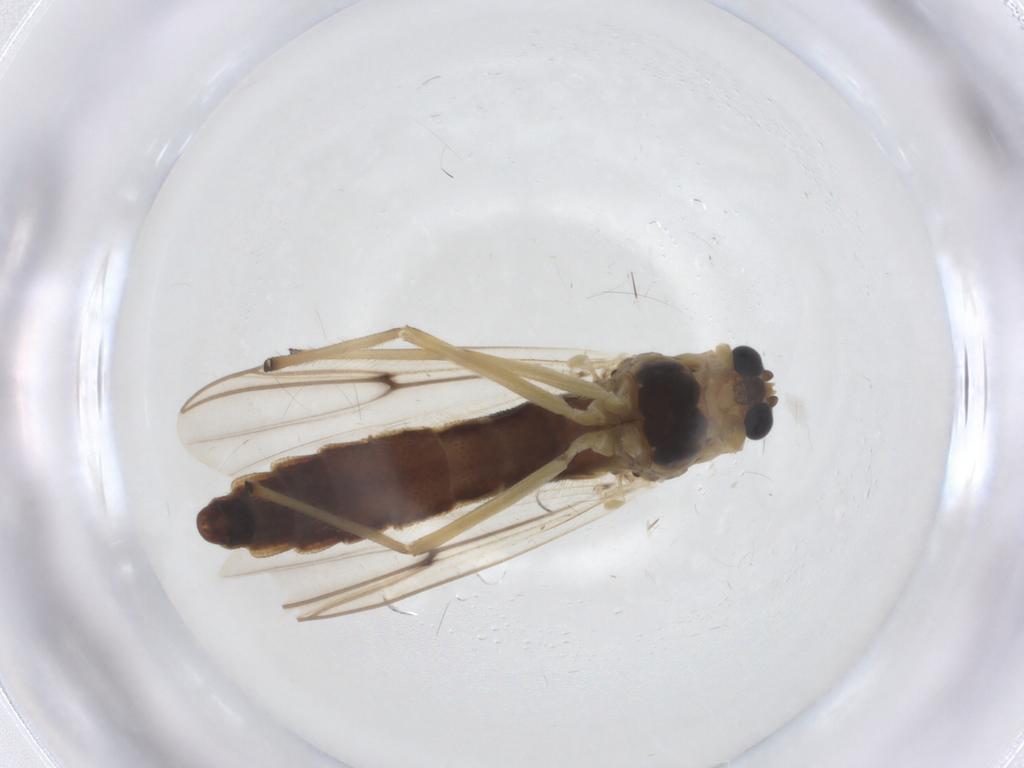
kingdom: Animalia
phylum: Arthropoda
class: Insecta
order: Diptera
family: Chironomidae
